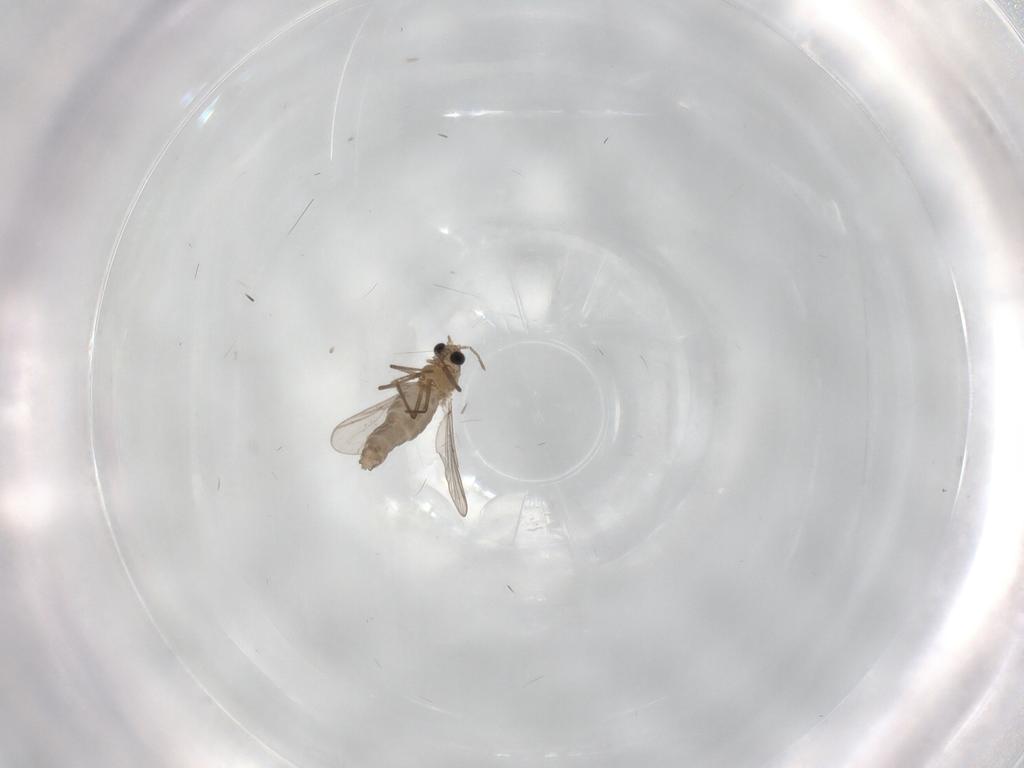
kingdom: Animalia
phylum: Arthropoda
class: Insecta
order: Diptera
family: Chironomidae
